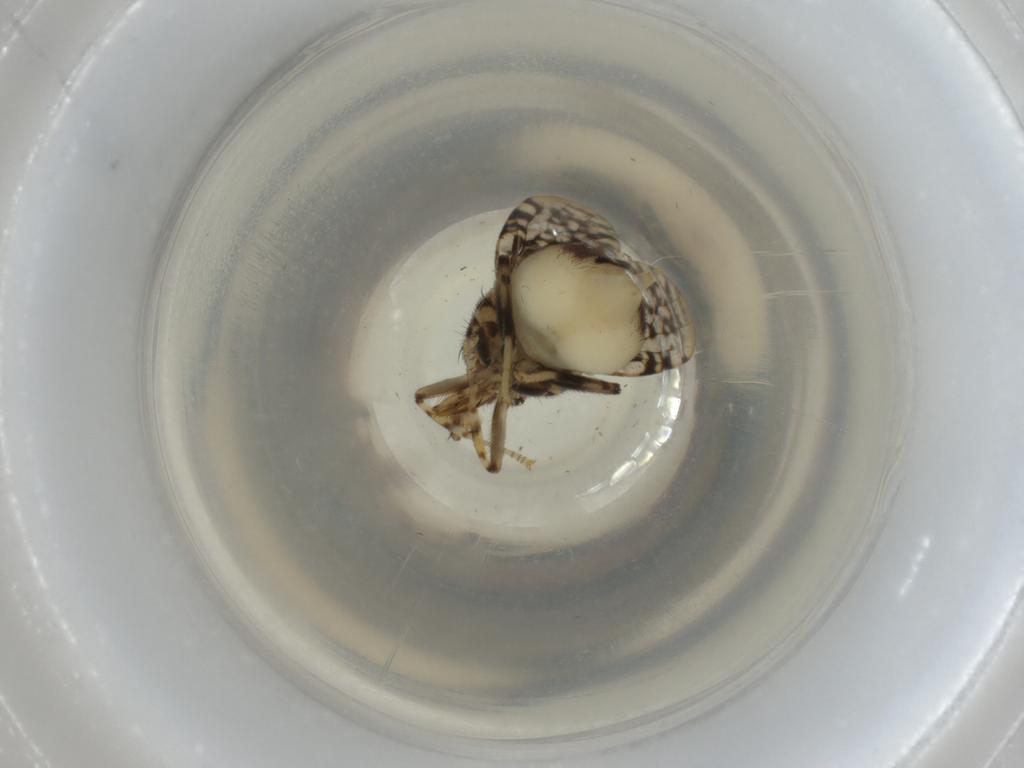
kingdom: Animalia
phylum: Arthropoda
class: Insecta
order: Diptera
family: Platystomatidae
